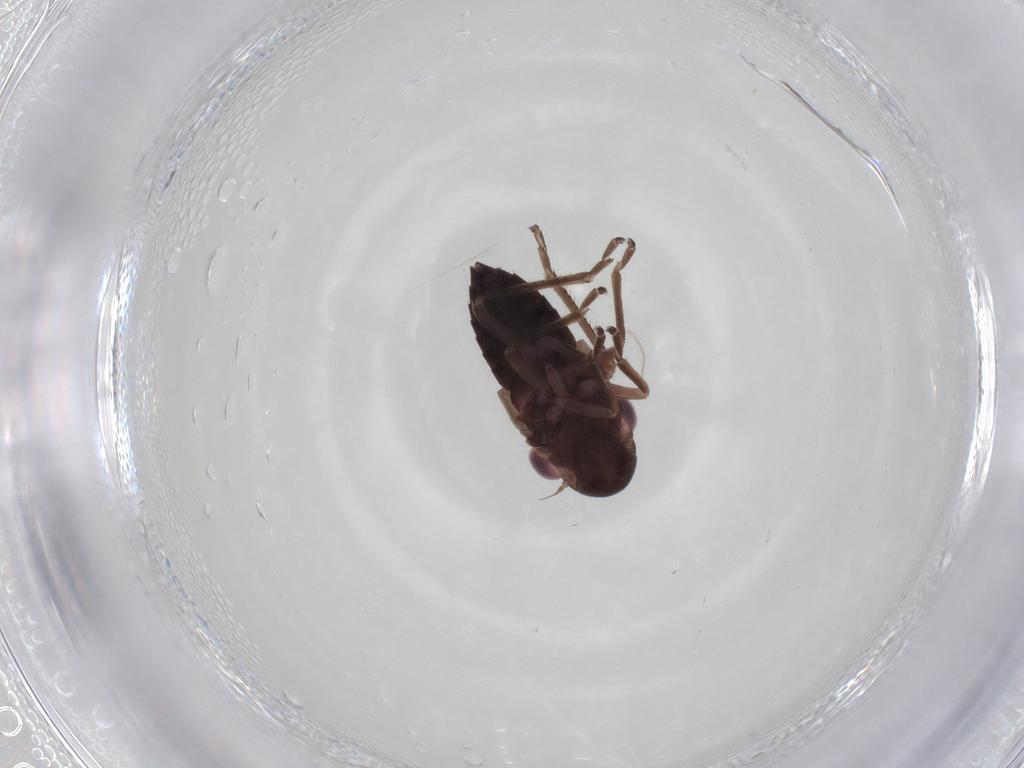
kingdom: Animalia
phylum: Arthropoda
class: Insecta
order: Hemiptera
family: Cicadellidae
